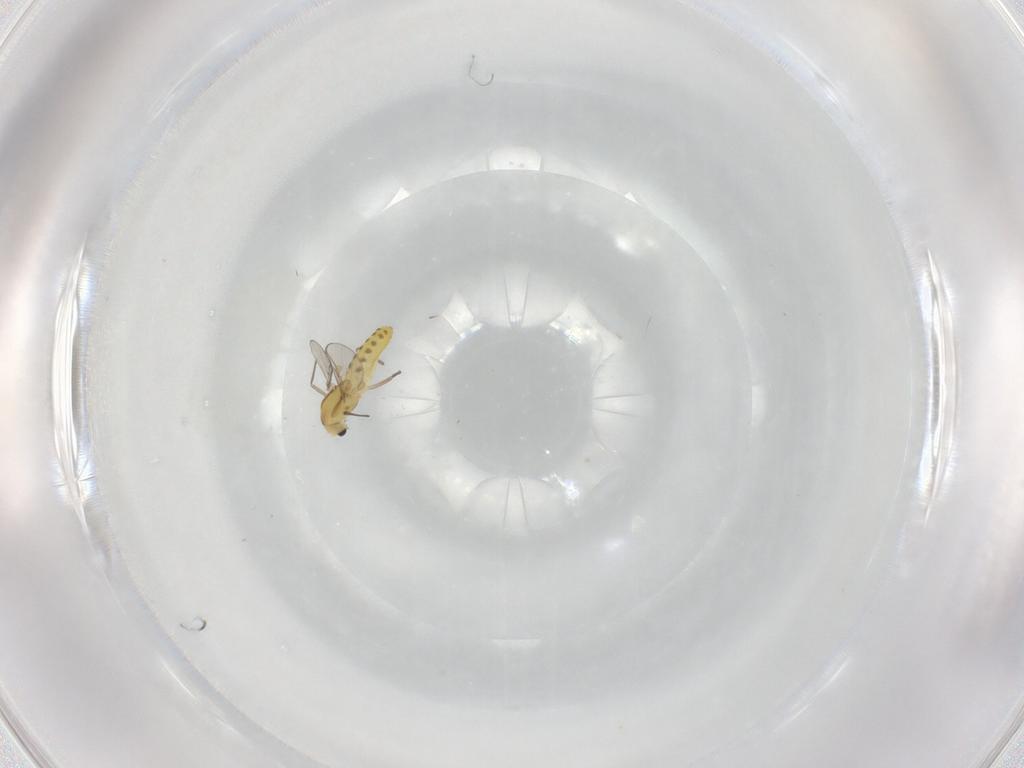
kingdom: Animalia
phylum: Arthropoda
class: Insecta
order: Diptera
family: Chironomidae
